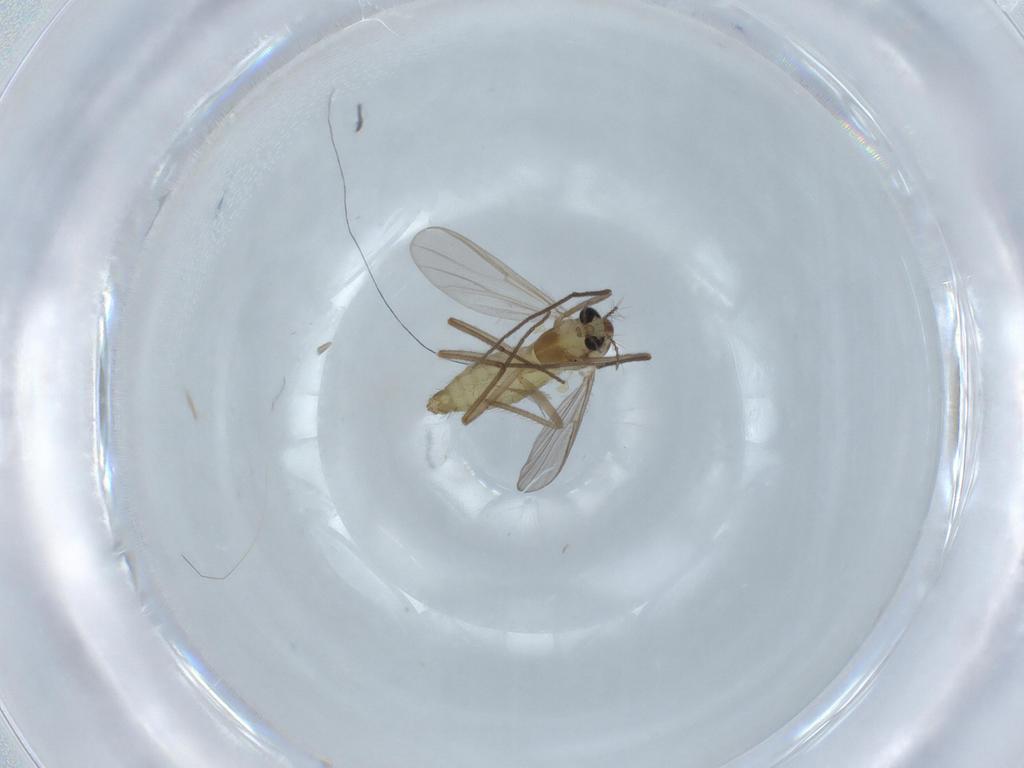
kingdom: Animalia
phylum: Arthropoda
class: Insecta
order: Diptera
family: Chironomidae
